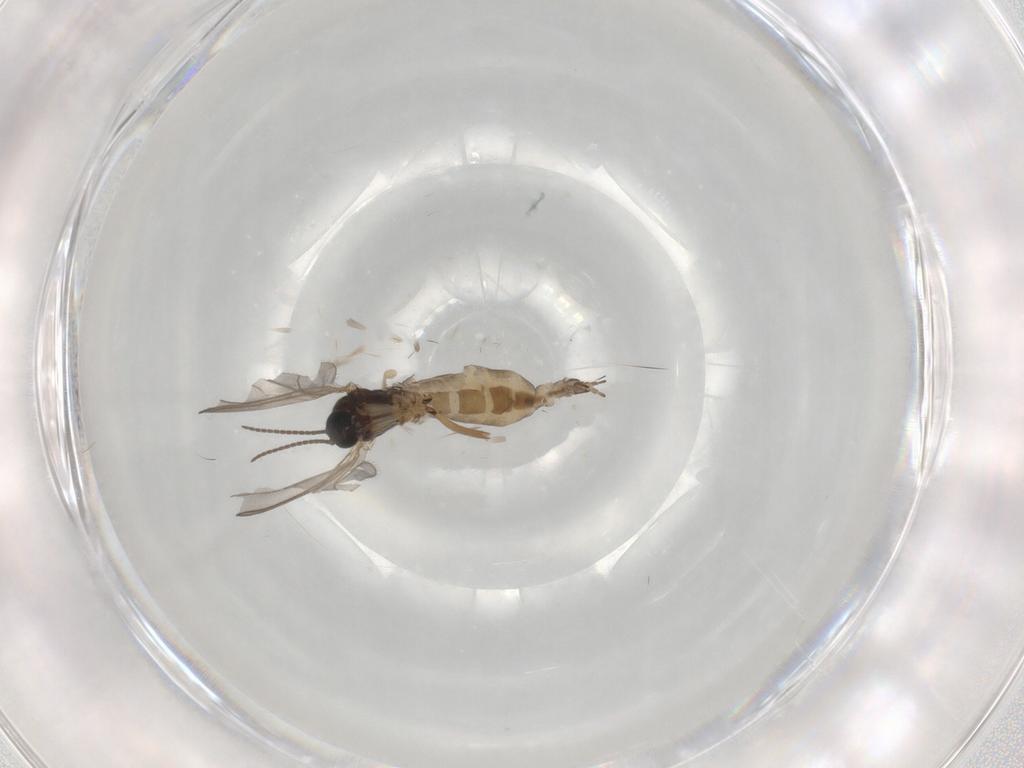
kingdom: Animalia
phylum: Arthropoda
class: Insecta
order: Diptera
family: Sciaridae
